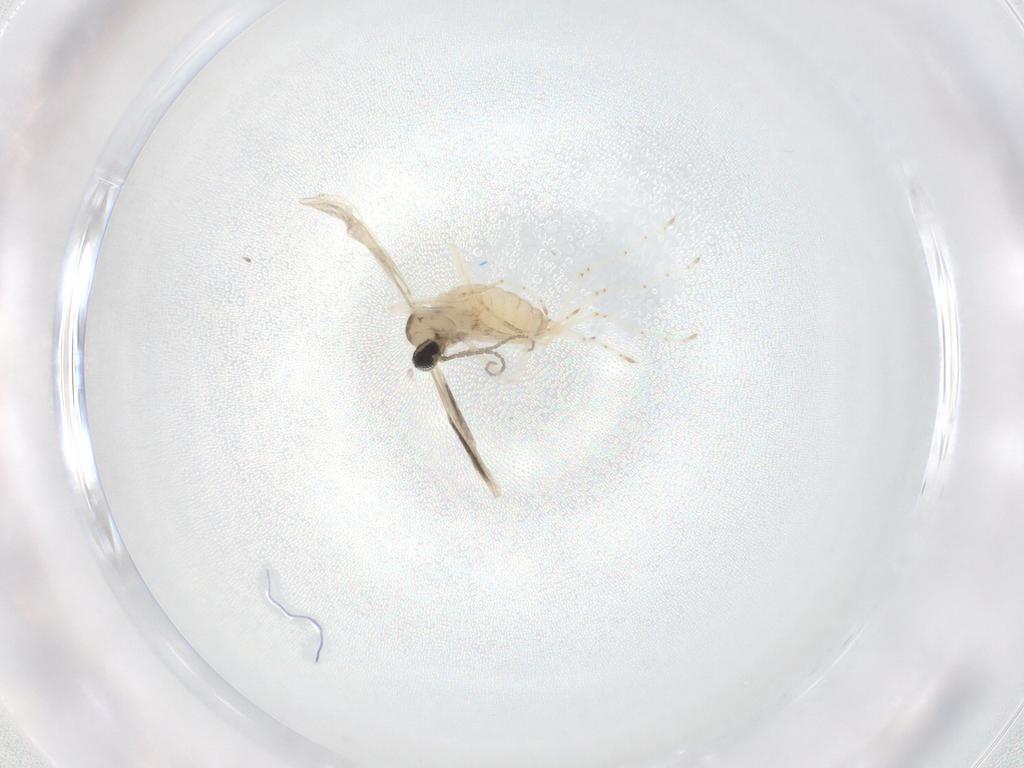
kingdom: Animalia
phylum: Arthropoda
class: Insecta
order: Diptera
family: Cecidomyiidae
